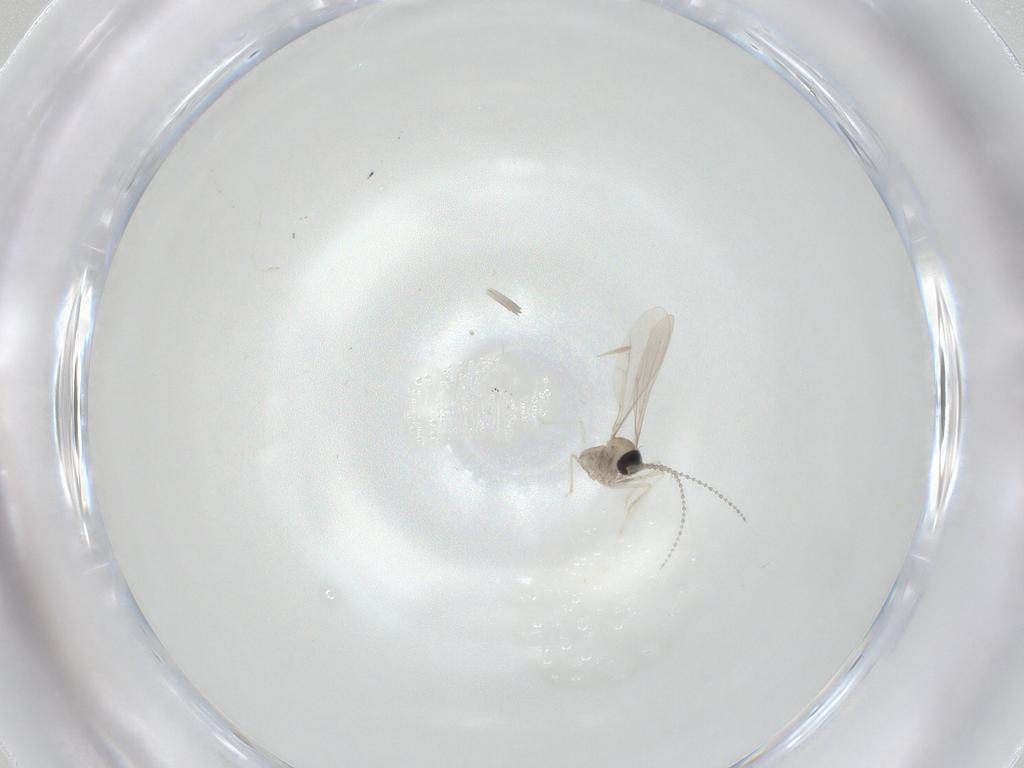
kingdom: Animalia
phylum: Arthropoda
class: Insecta
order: Diptera
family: Cecidomyiidae
